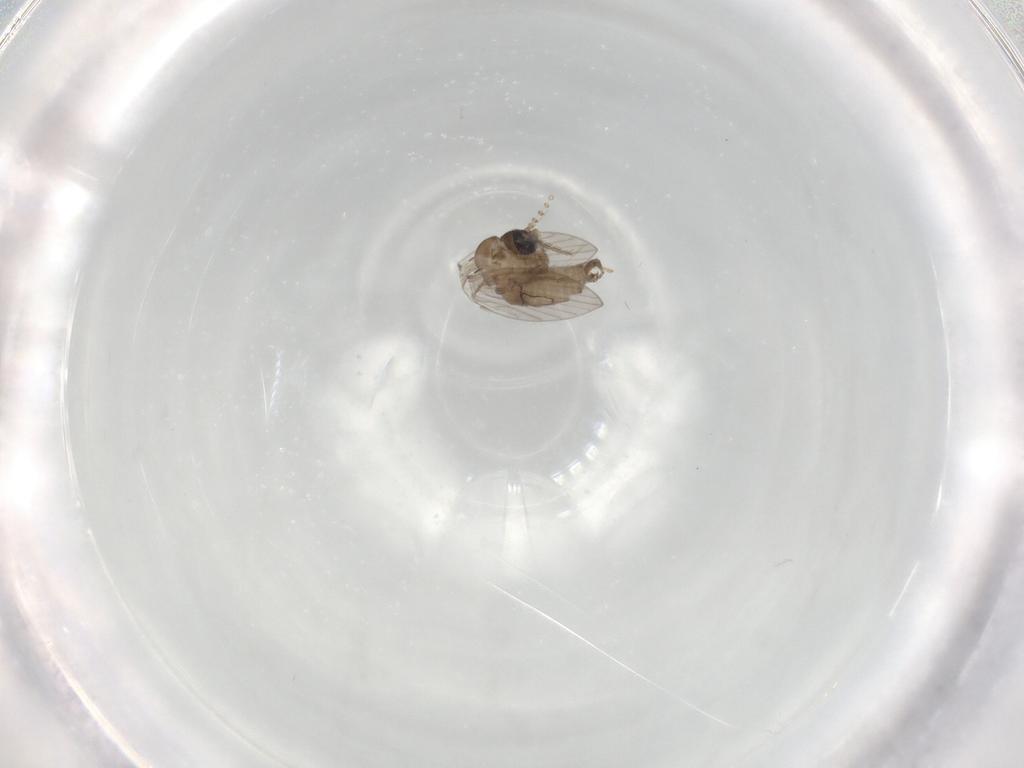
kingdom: Animalia
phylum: Arthropoda
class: Insecta
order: Diptera
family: Psychodidae
